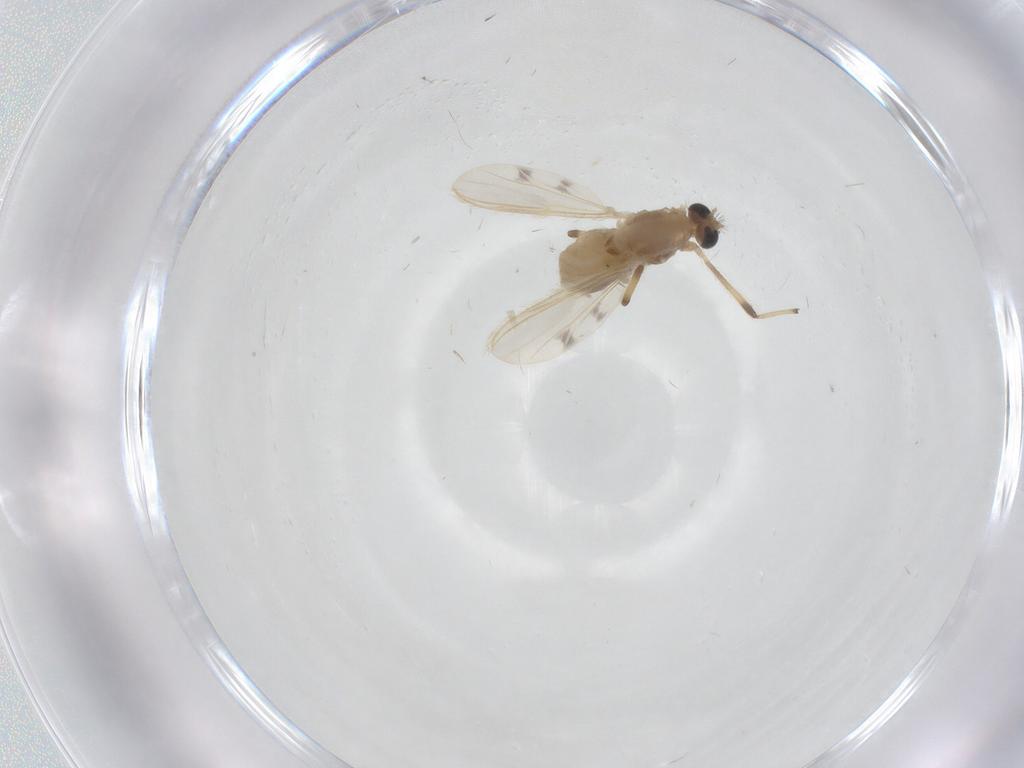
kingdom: Animalia
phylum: Arthropoda
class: Insecta
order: Diptera
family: Chironomidae
